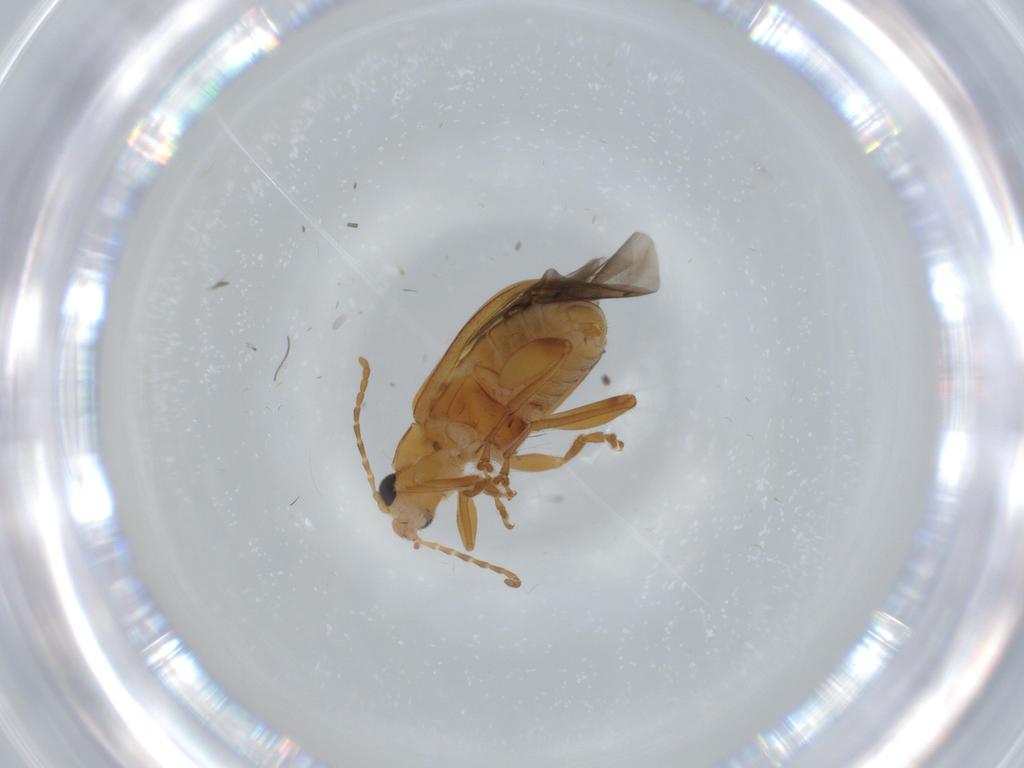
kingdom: Animalia
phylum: Arthropoda
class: Insecta
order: Coleoptera
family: Chrysomelidae
